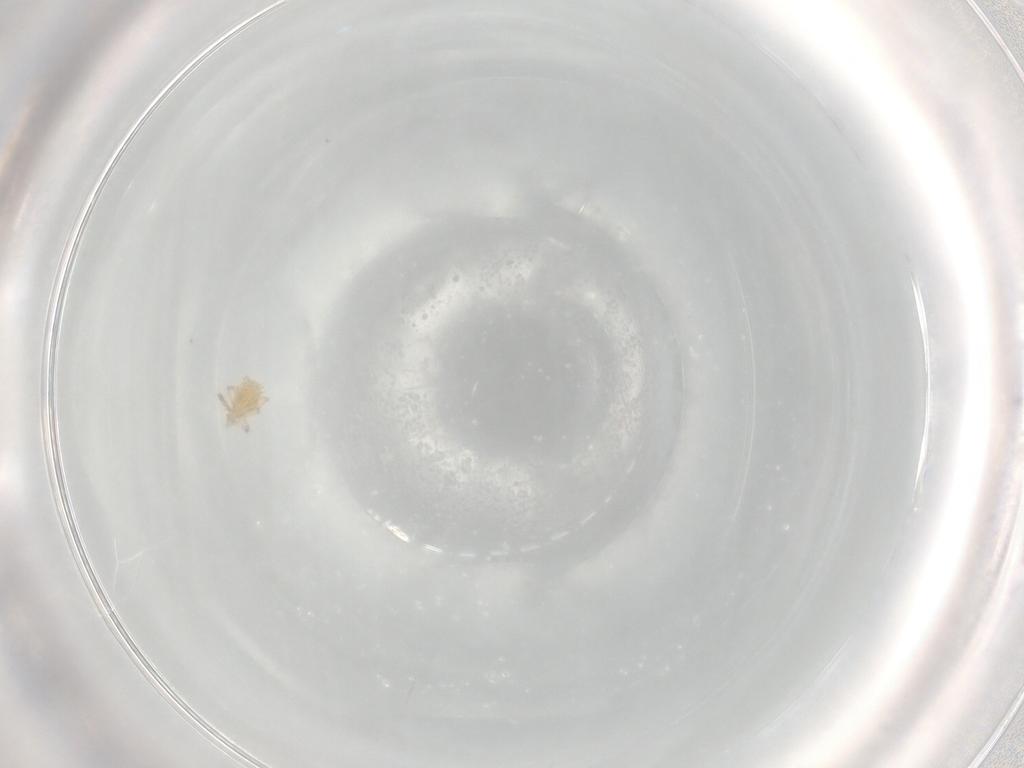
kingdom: Animalia
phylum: Arthropoda
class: Arachnida
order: Trombidiformes
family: Erythraeidae
